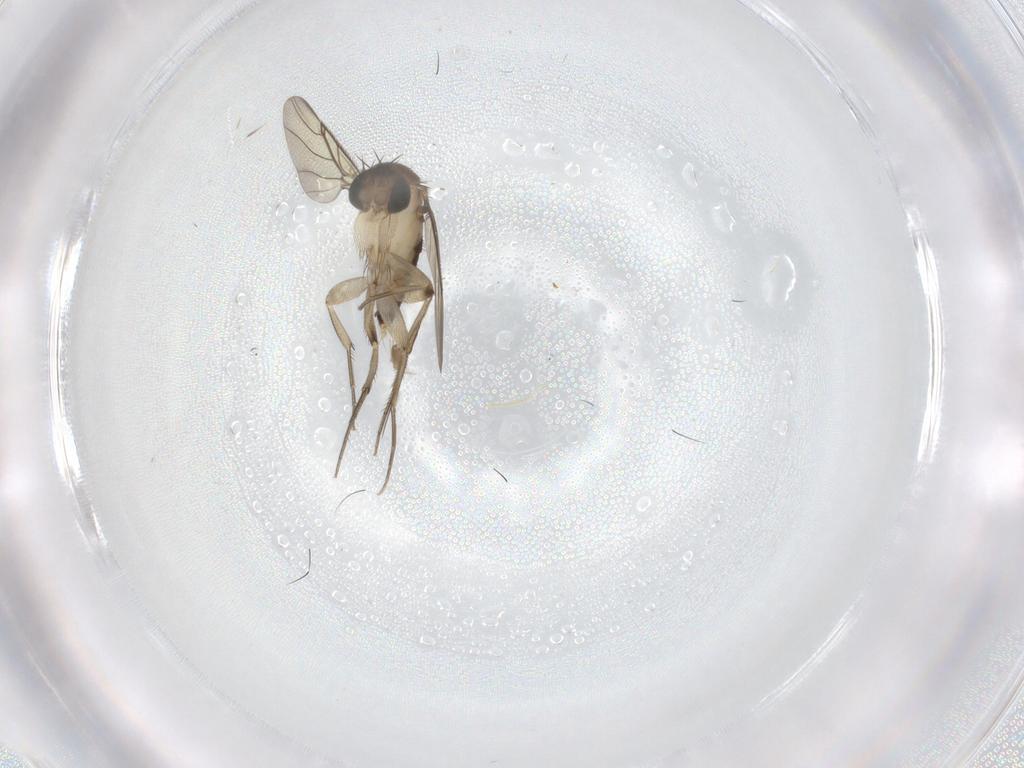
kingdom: Animalia
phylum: Arthropoda
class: Insecta
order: Diptera
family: Phoridae
